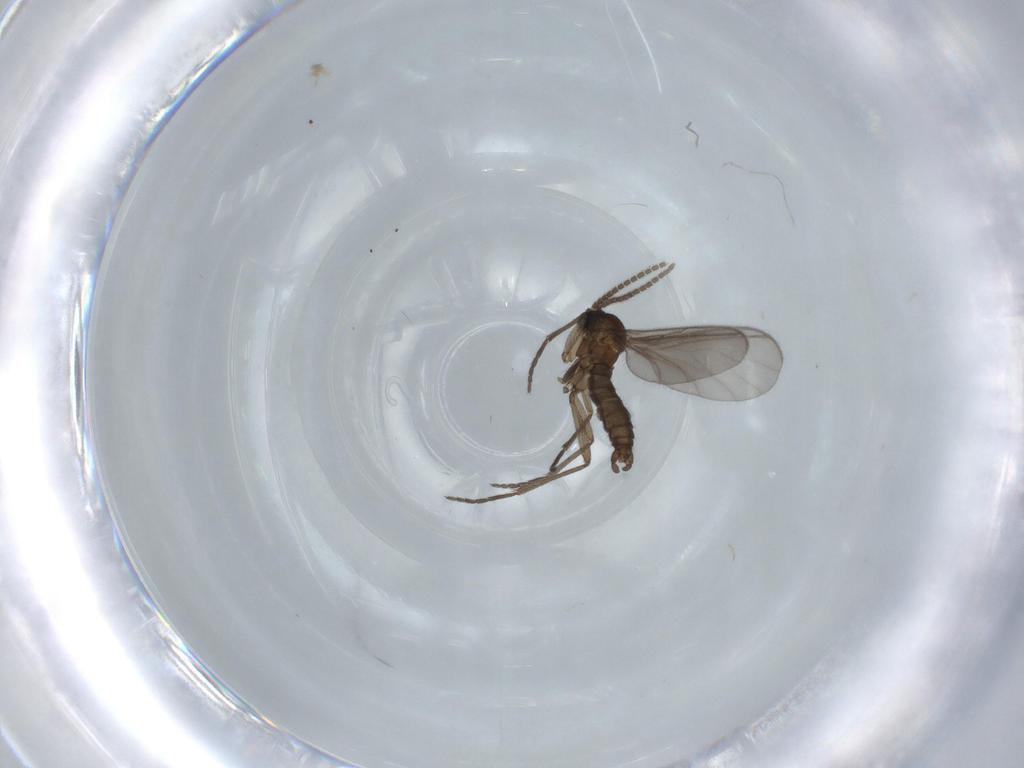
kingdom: Animalia
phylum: Arthropoda
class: Insecta
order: Diptera
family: Sciaridae
